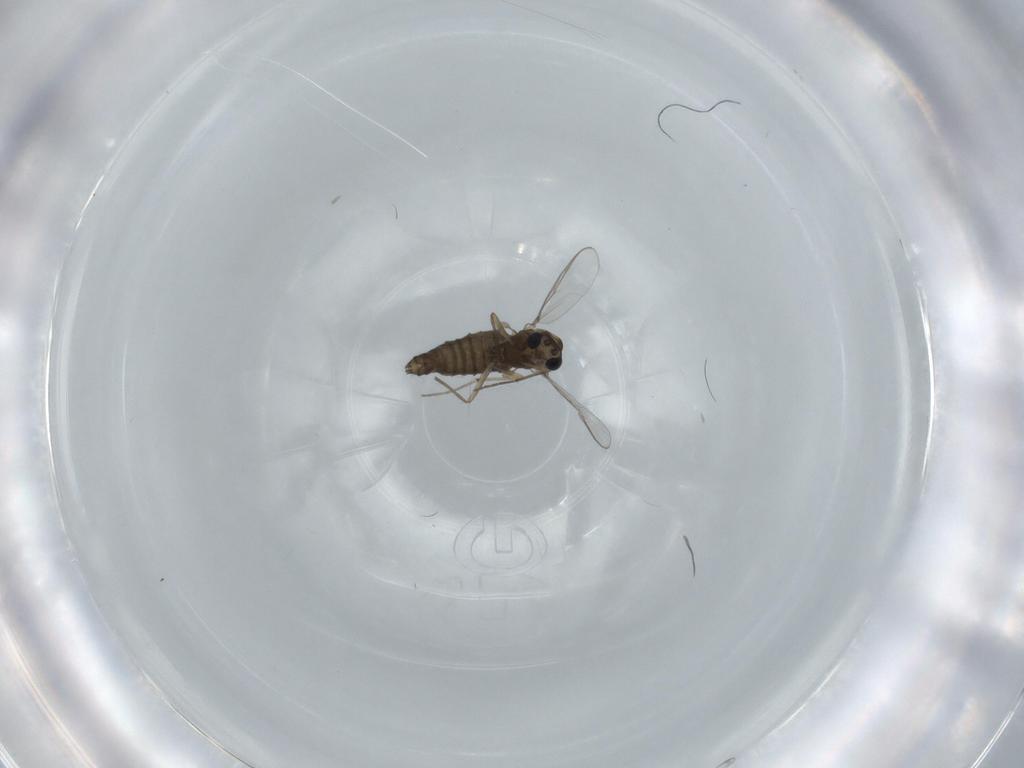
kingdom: Animalia
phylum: Arthropoda
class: Insecta
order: Diptera
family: Chironomidae
